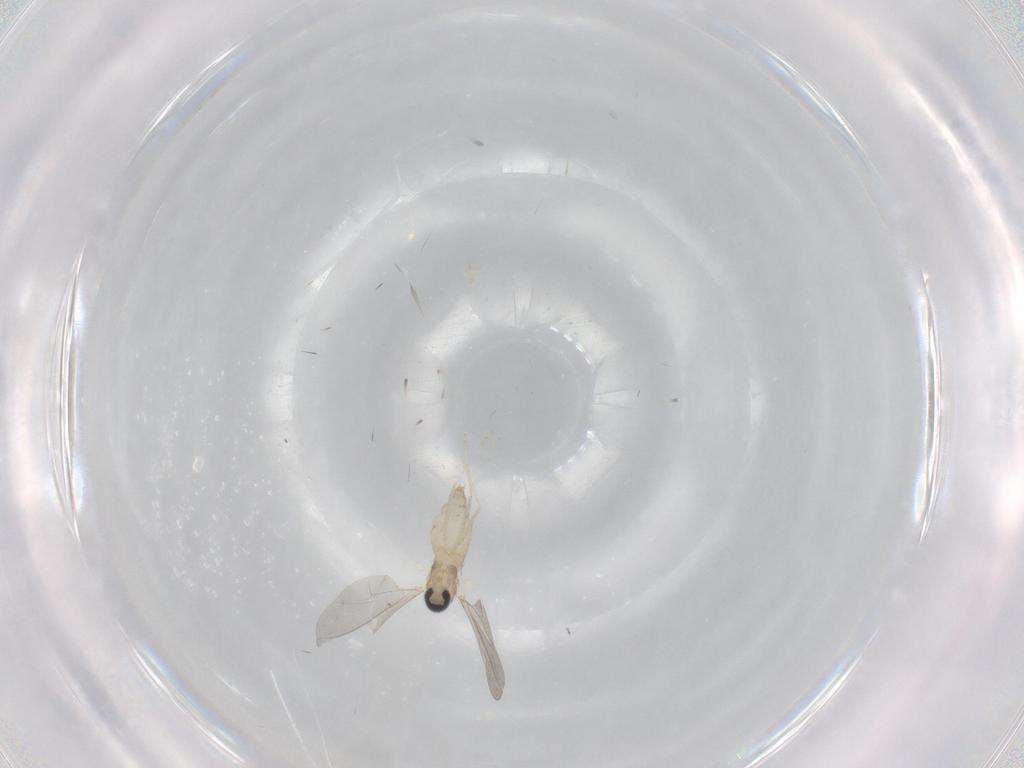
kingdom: Animalia
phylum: Arthropoda
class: Insecta
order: Diptera
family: Cecidomyiidae
